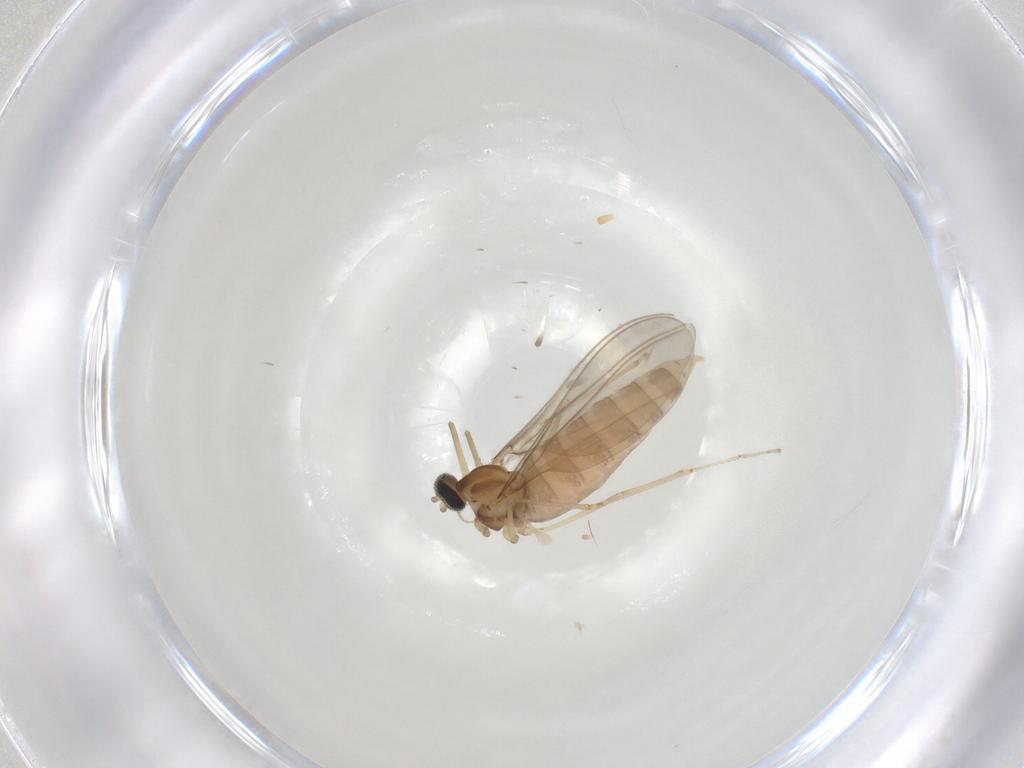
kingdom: Animalia
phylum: Arthropoda
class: Insecta
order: Diptera
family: Cecidomyiidae
